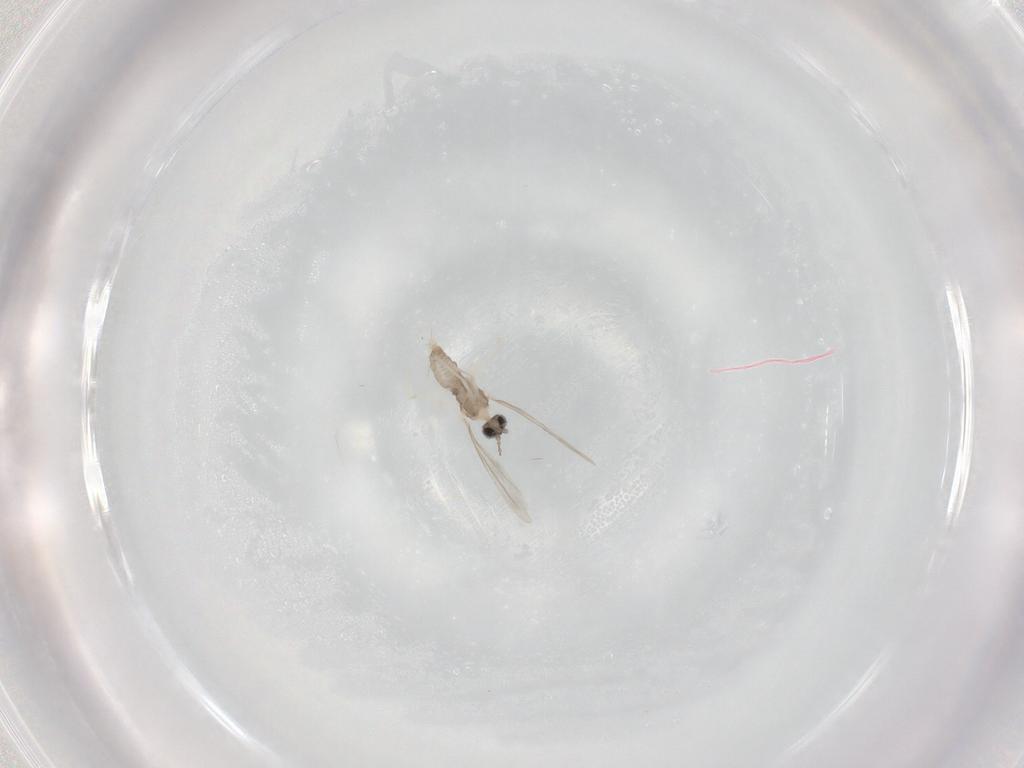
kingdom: Animalia
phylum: Arthropoda
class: Insecta
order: Diptera
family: Cecidomyiidae
